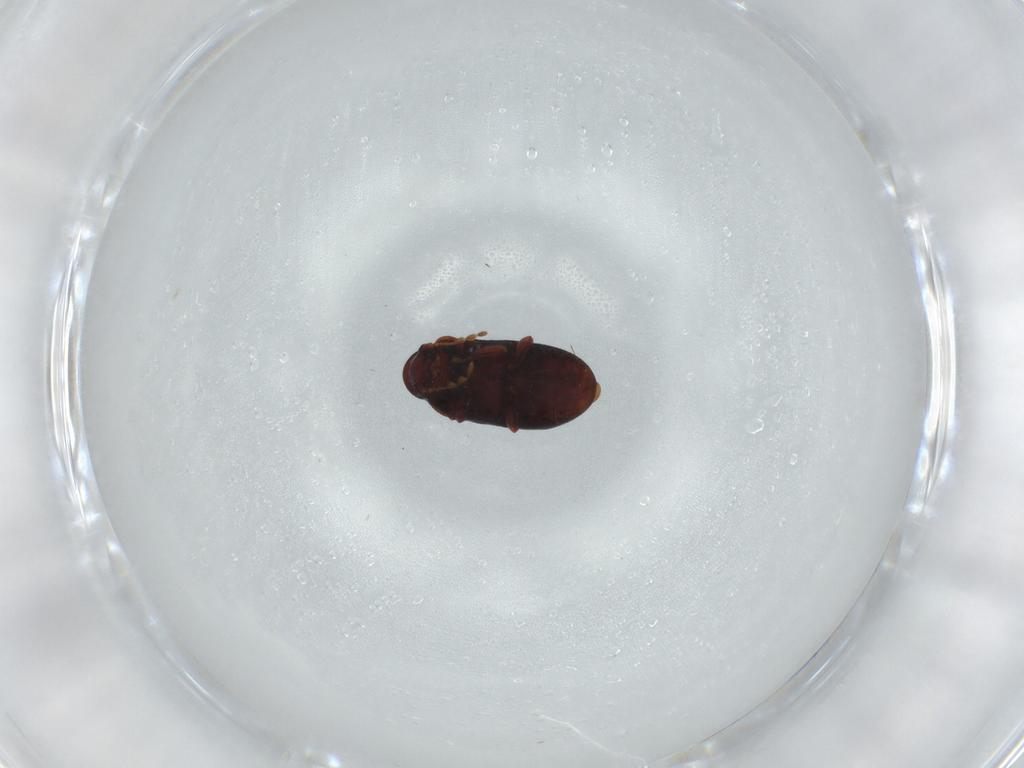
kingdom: Animalia
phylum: Arthropoda
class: Insecta
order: Coleoptera
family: Ptinidae
